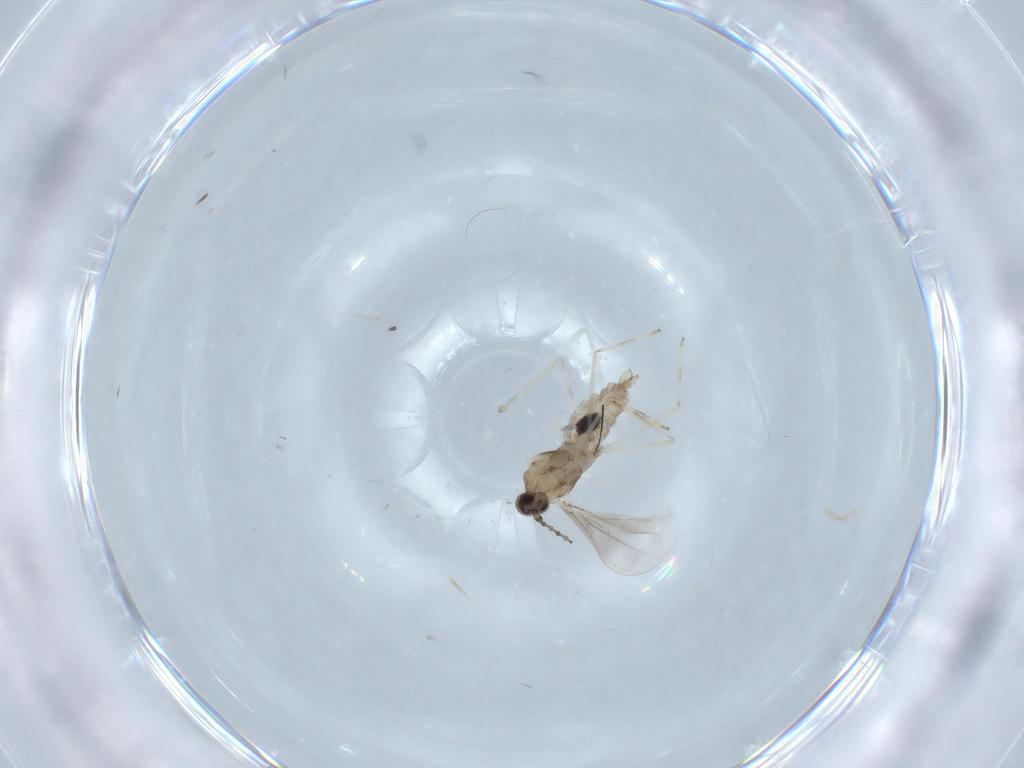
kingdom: Animalia
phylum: Arthropoda
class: Insecta
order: Diptera
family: Cecidomyiidae
